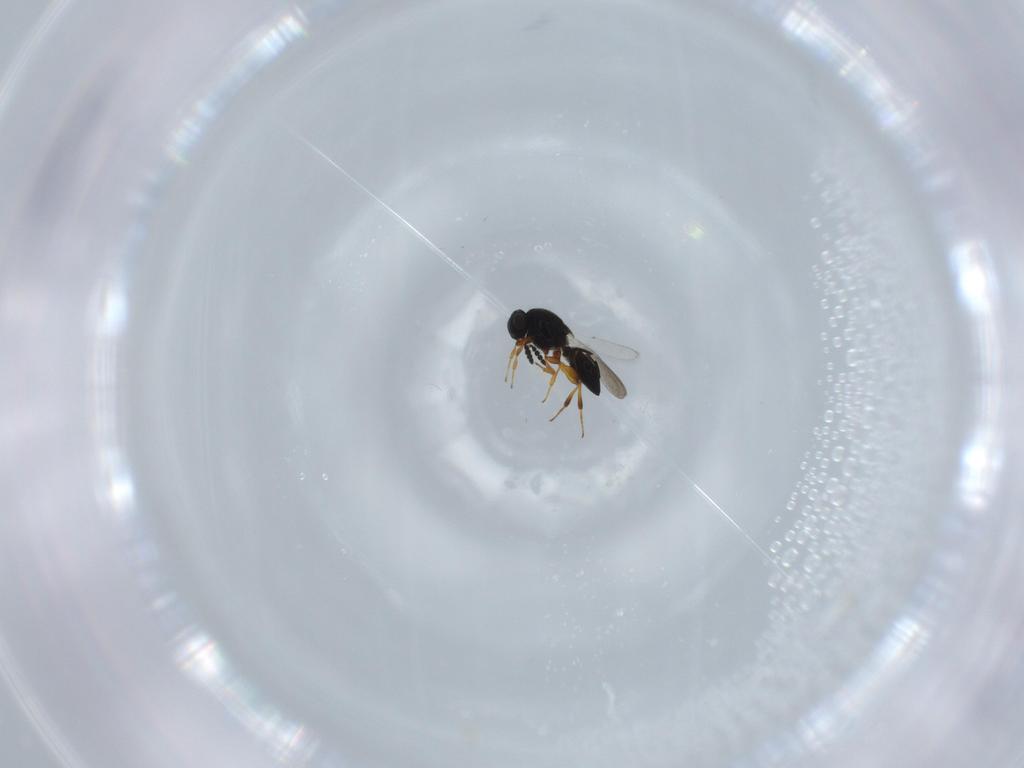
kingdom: Animalia
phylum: Arthropoda
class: Insecta
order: Hymenoptera
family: Platygastridae
